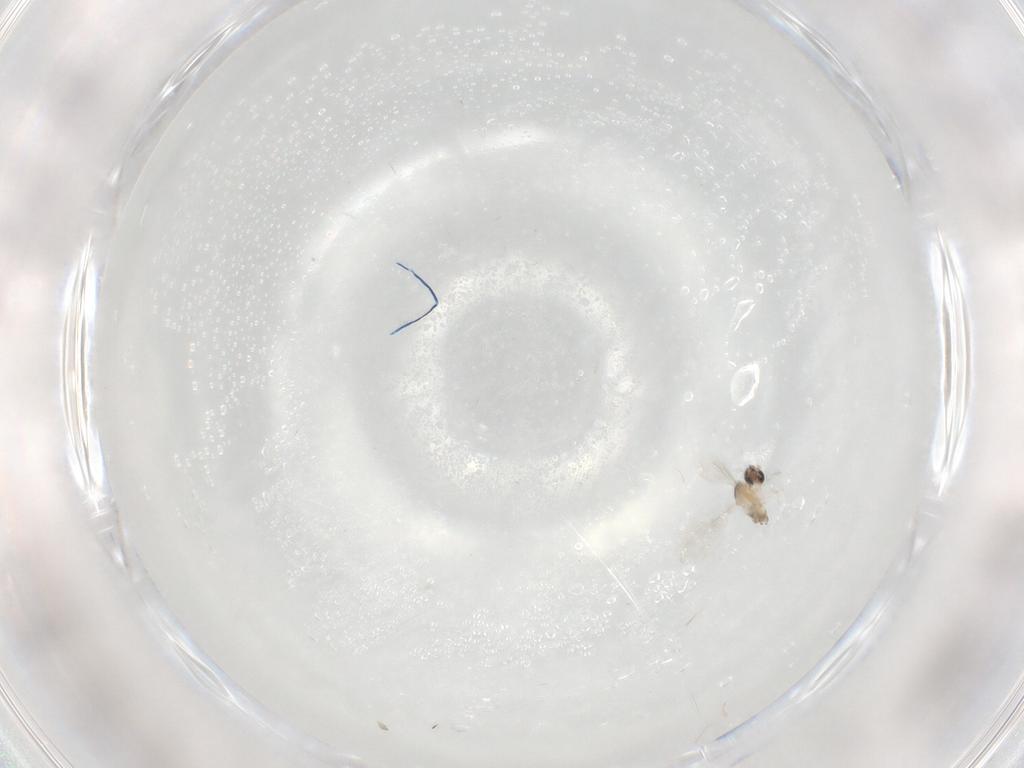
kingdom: Animalia
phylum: Arthropoda
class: Insecta
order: Diptera
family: Cecidomyiidae
